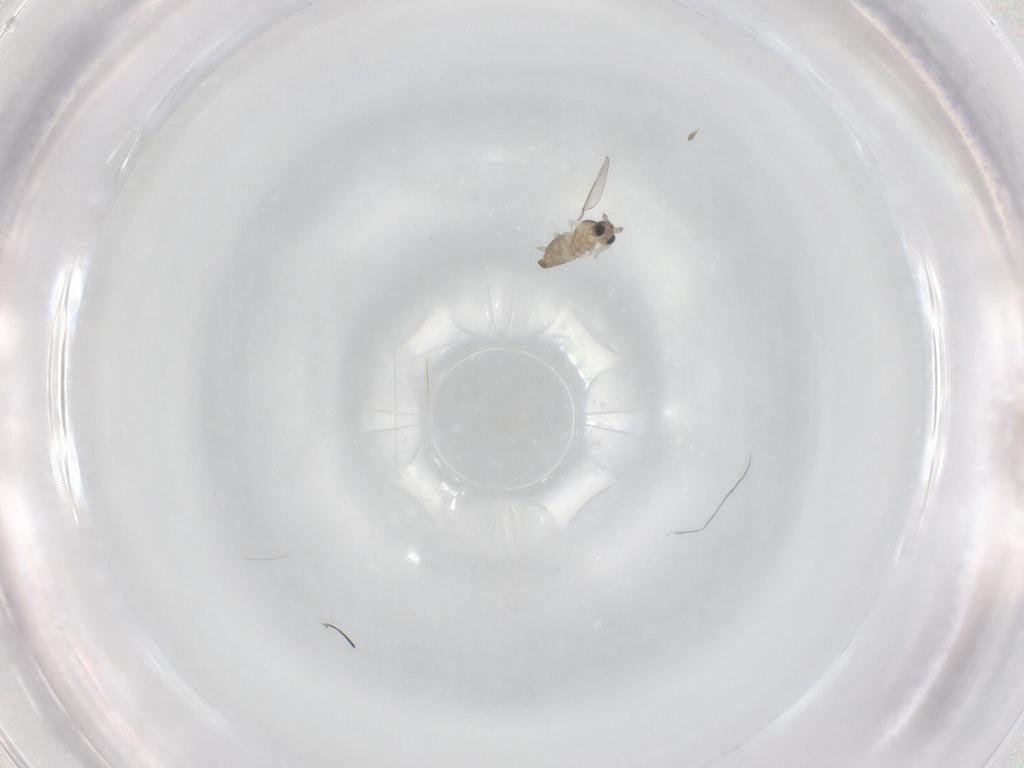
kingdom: Animalia
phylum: Arthropoda
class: Insecta
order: Diptera
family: Cecidomyiidae
